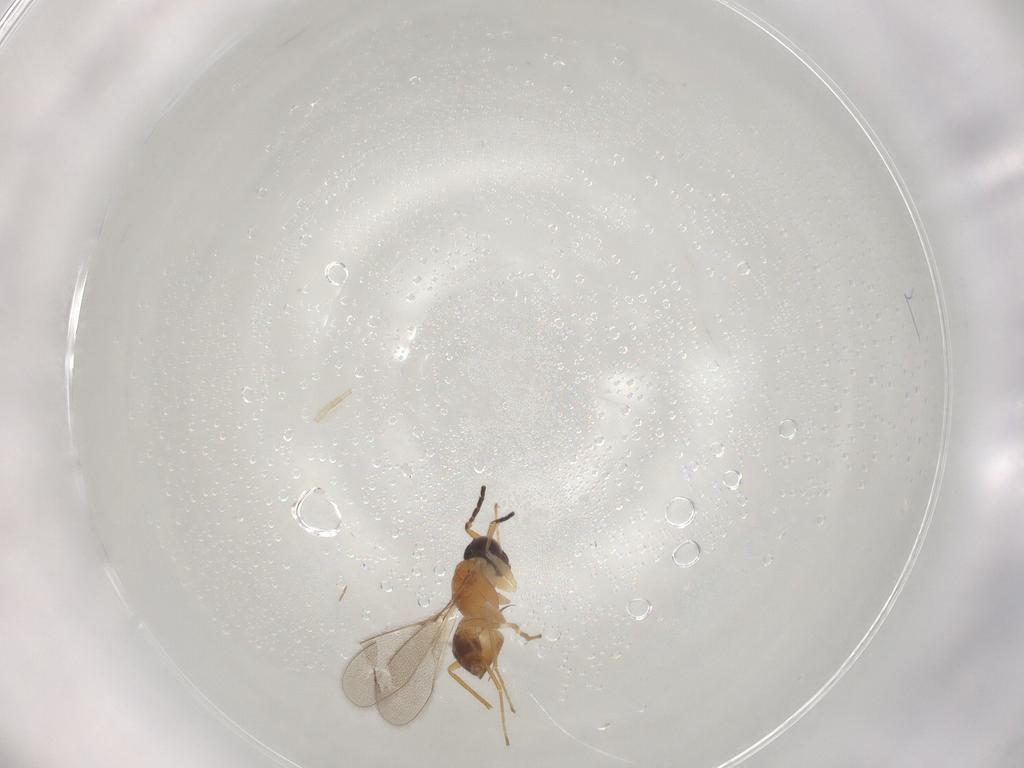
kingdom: Animalia
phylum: Arthropoda
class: Insecta
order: Hymenoptera
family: Mymaridae
